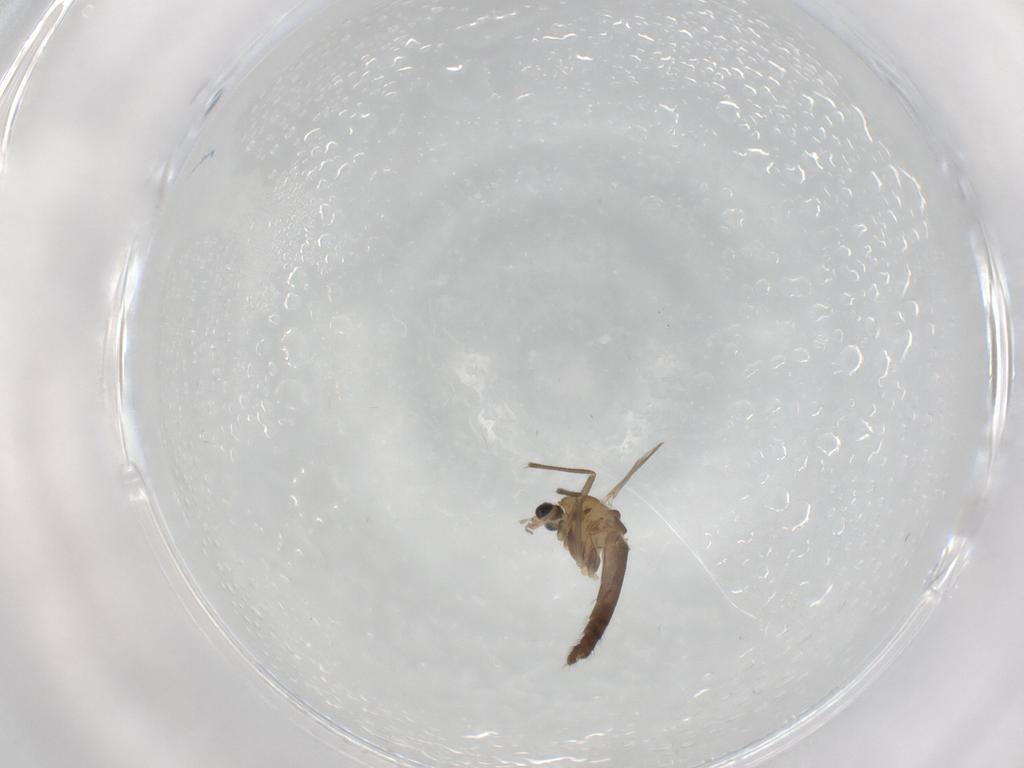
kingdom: Animalia
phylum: Arthropoda
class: Insecta
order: Diptera
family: Chironomidae
